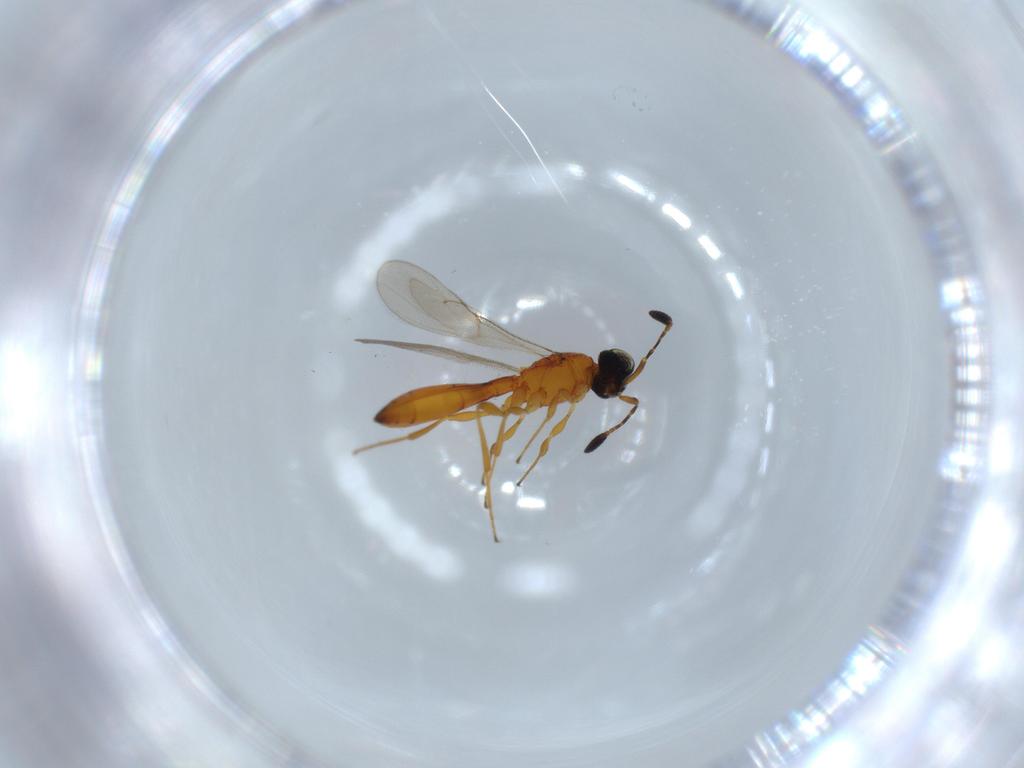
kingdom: Animalia
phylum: Arthropoda
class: Insecta
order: Hymenoptera
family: Scelionidae
